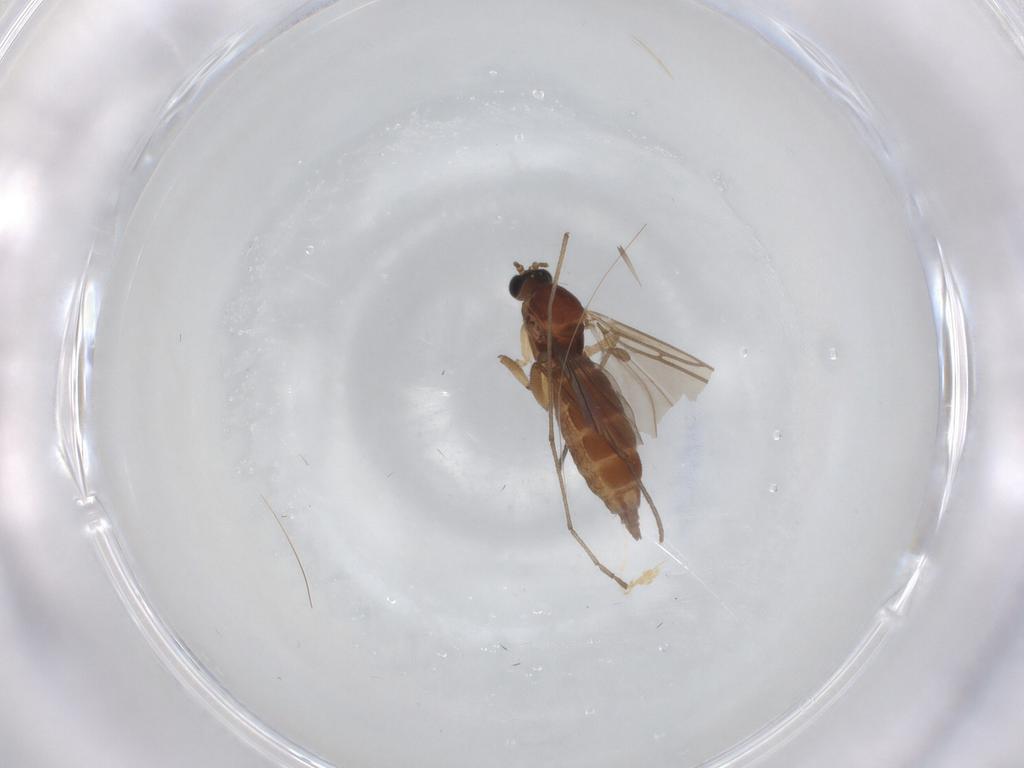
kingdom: Animalia
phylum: Arthropoda
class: Insecta
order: Diptera
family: Sciaridae
